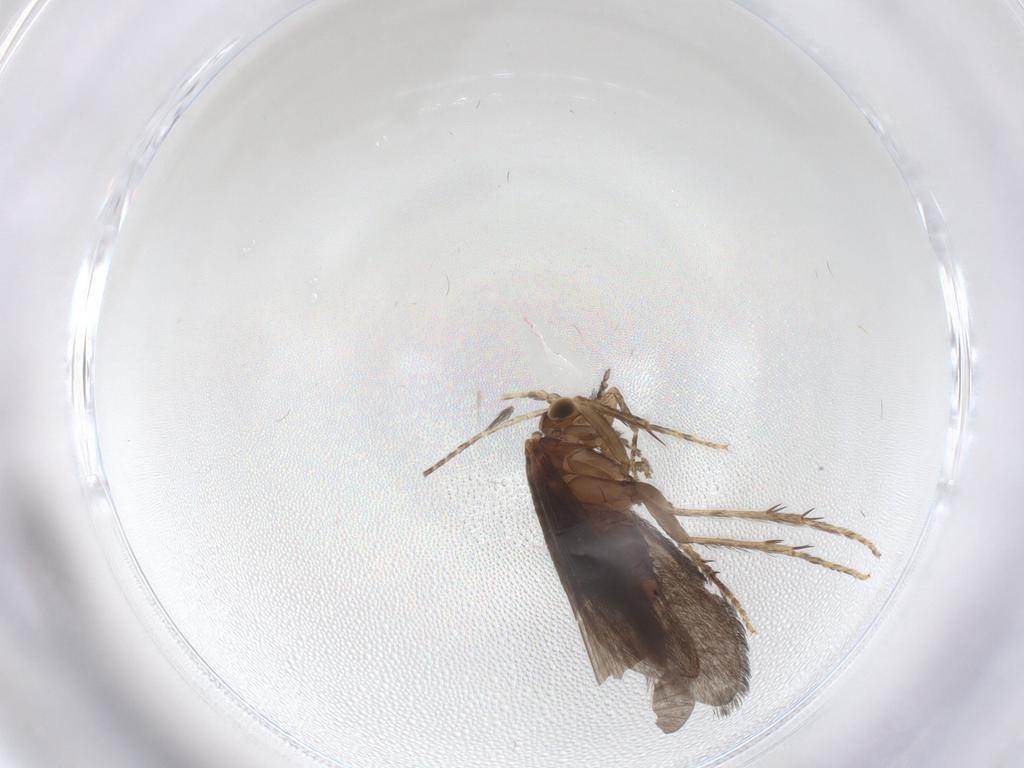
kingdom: Animalia
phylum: Arthropoda
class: Insecta
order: Trichoptera
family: Glossosomatidae
